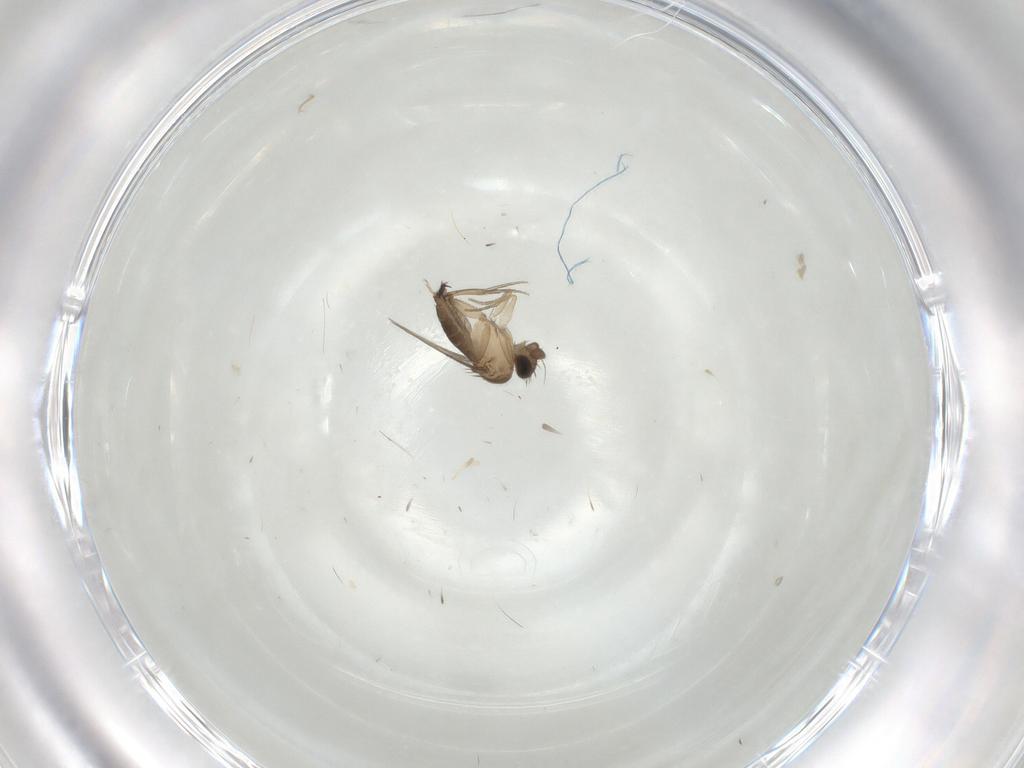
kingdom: Animalia
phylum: Arthropoda
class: Insecta
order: Diptera
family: Phoridae
